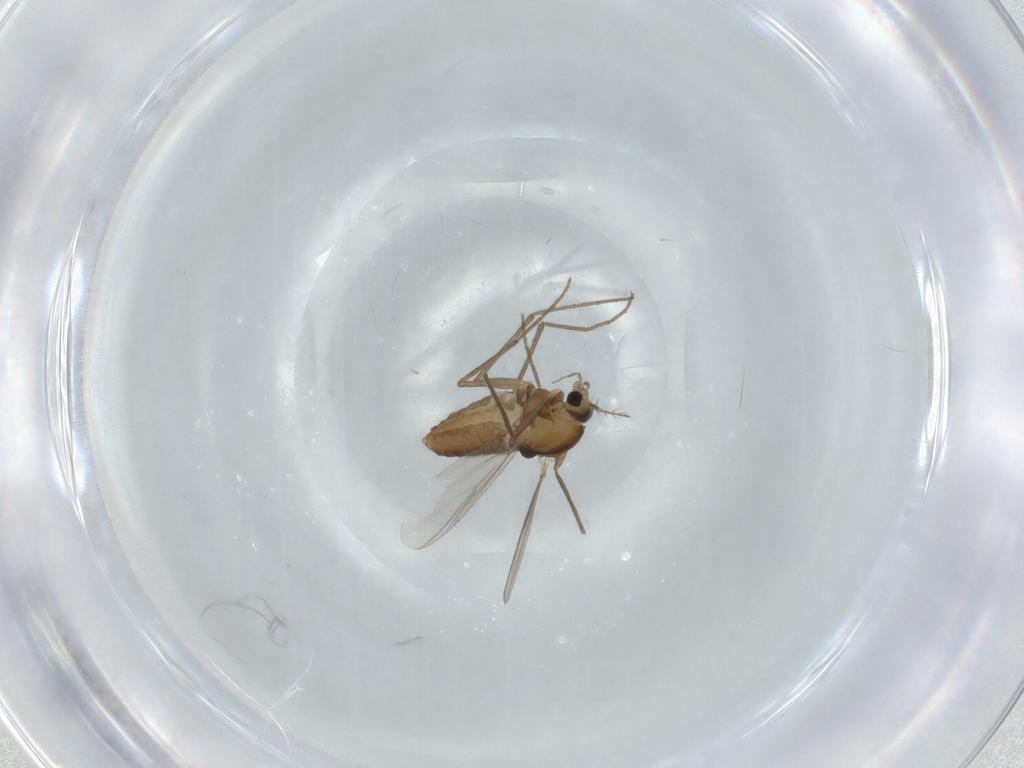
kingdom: Animalia
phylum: Arthropoda
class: Insecta
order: Diptera
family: Chironomidae
